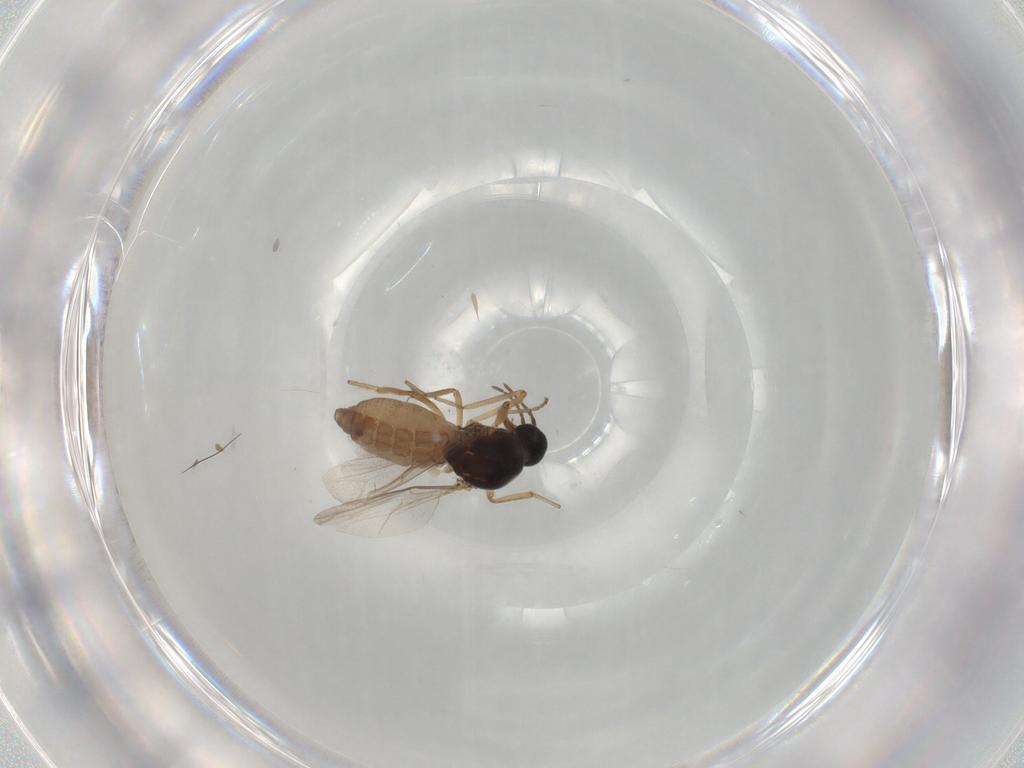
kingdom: Animalia
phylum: Arthropoda
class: Insecta
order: Diptera
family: Ceratopogonidae
